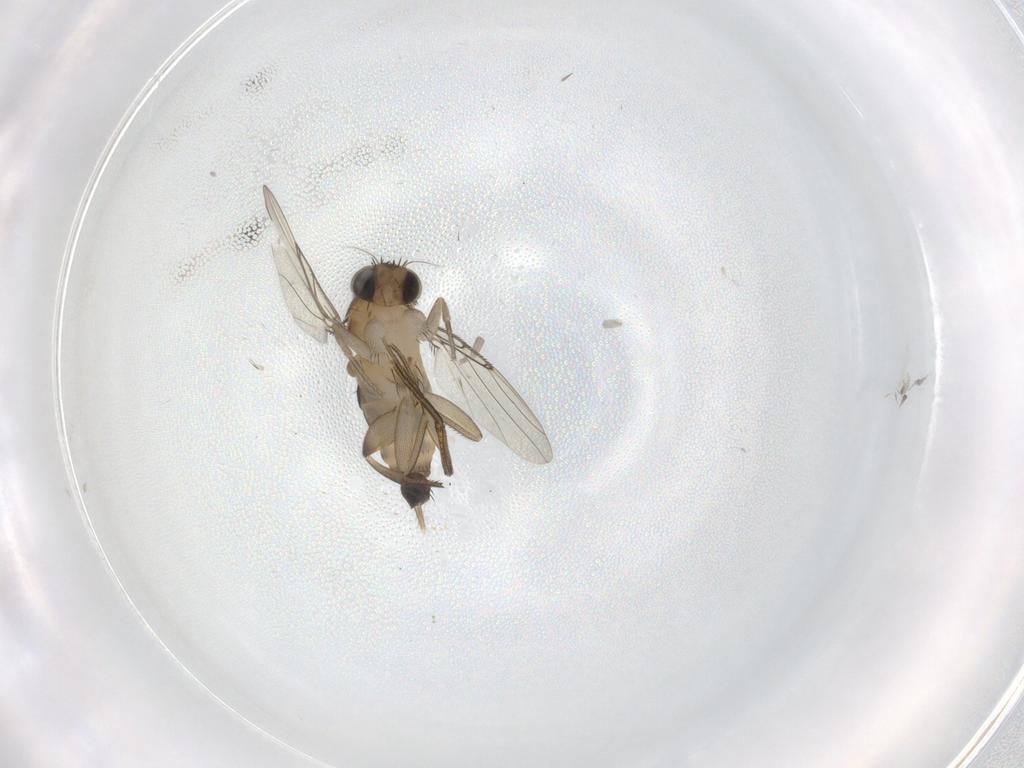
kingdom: Animalia
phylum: Arthropoda
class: Insecta
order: Diptera
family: Phoridae
